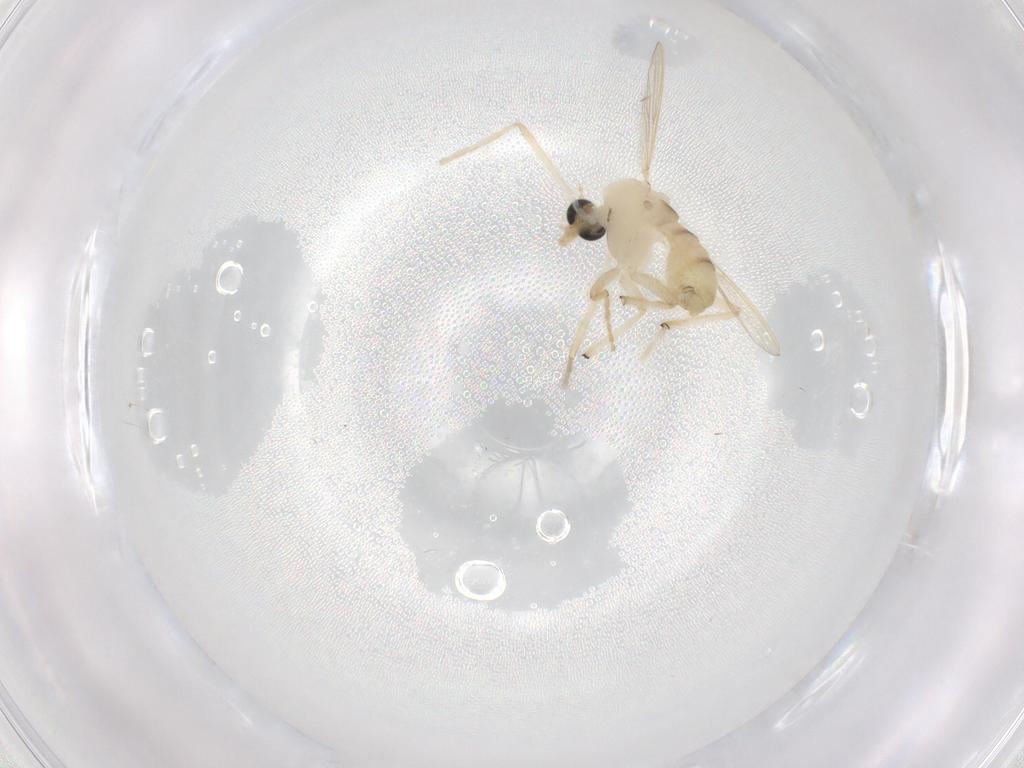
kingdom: Animalia
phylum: Arthropoda
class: Insecta
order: Diptera
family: Chironomidae
